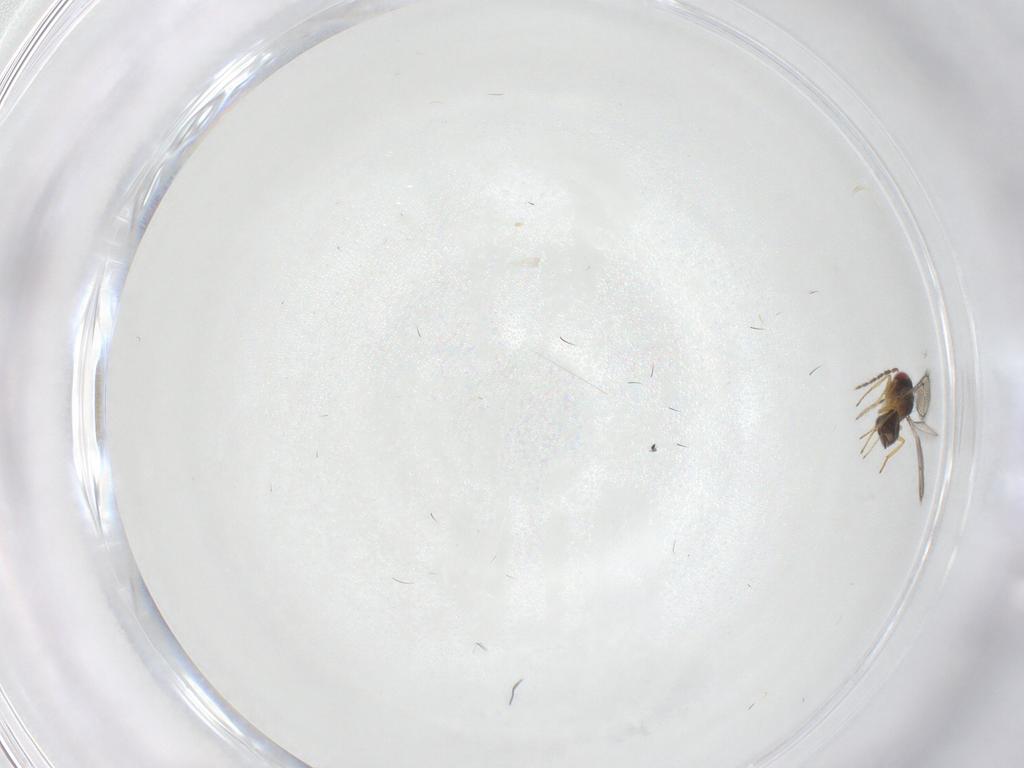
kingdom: Animalia
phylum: Arthropoda
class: Insecta
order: Hymenoptera
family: Eulophidae
